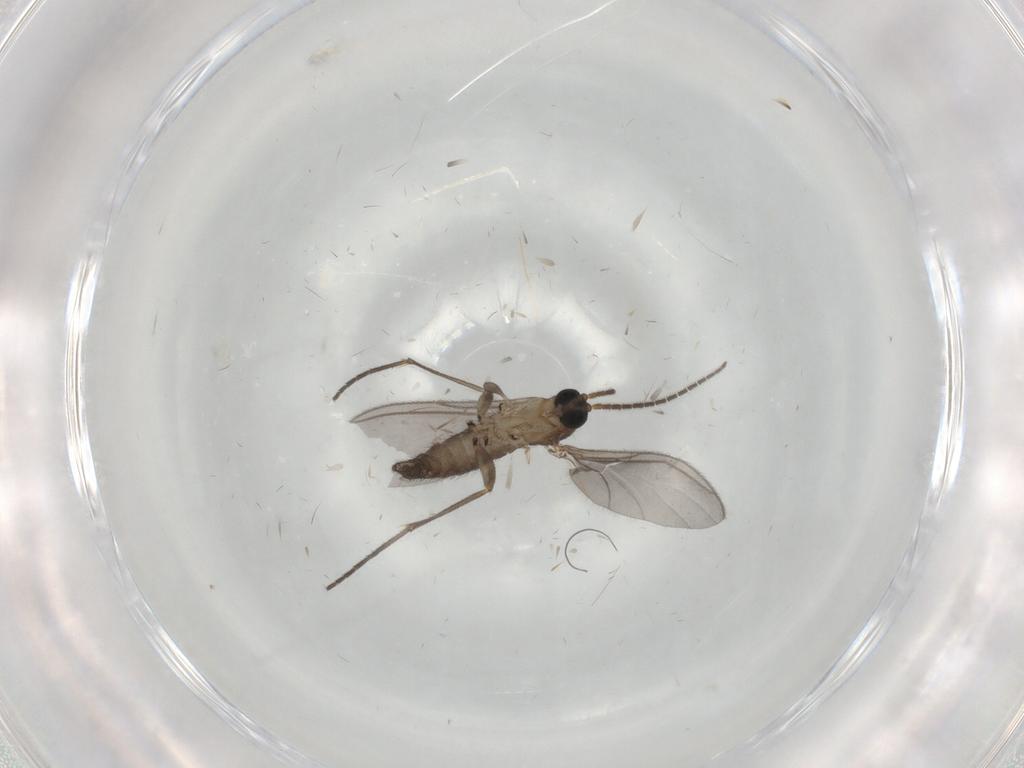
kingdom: Animalia
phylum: Arthropoda
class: Insecta
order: Diptera
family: Sciaridae
